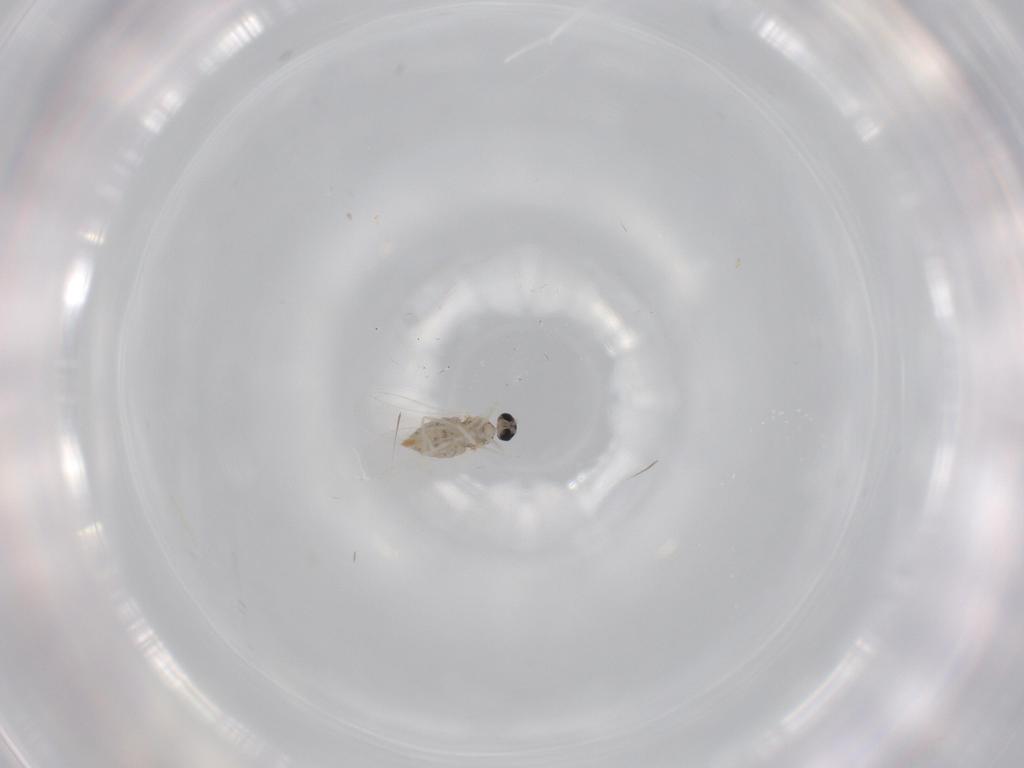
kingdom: Animalia
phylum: Arthropoda
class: Insecta
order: Diptera
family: Cecidomyiidae
